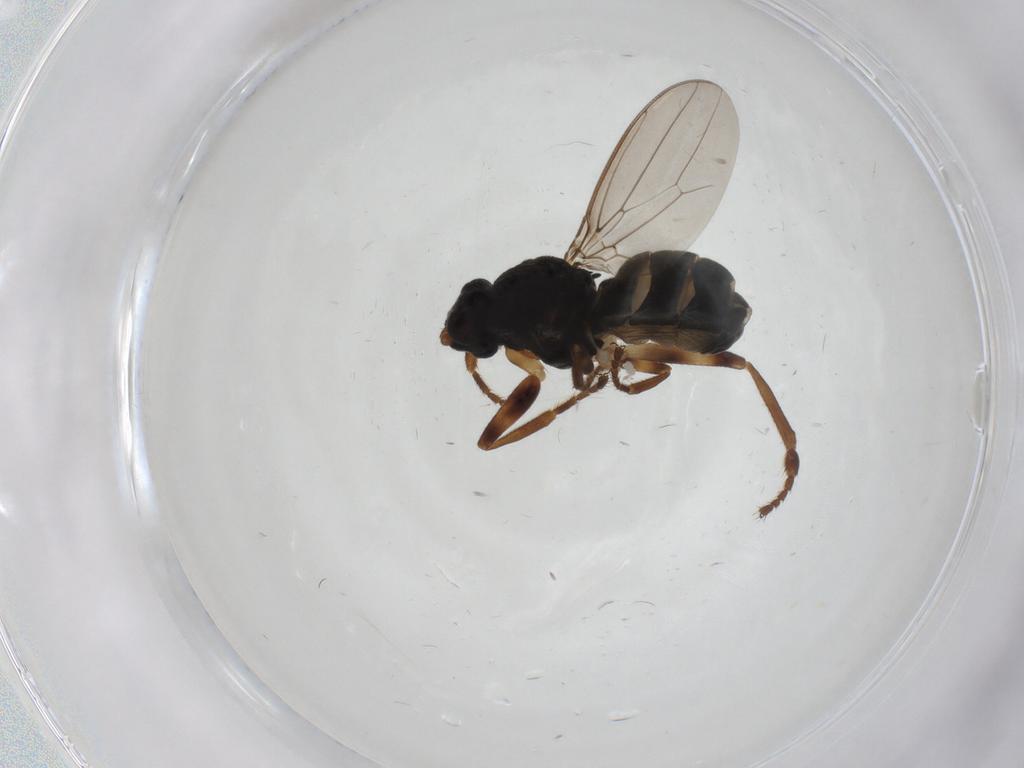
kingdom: Animalia
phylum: Arthropoda
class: Insecta
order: Diptera
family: Sphaeroceridae
